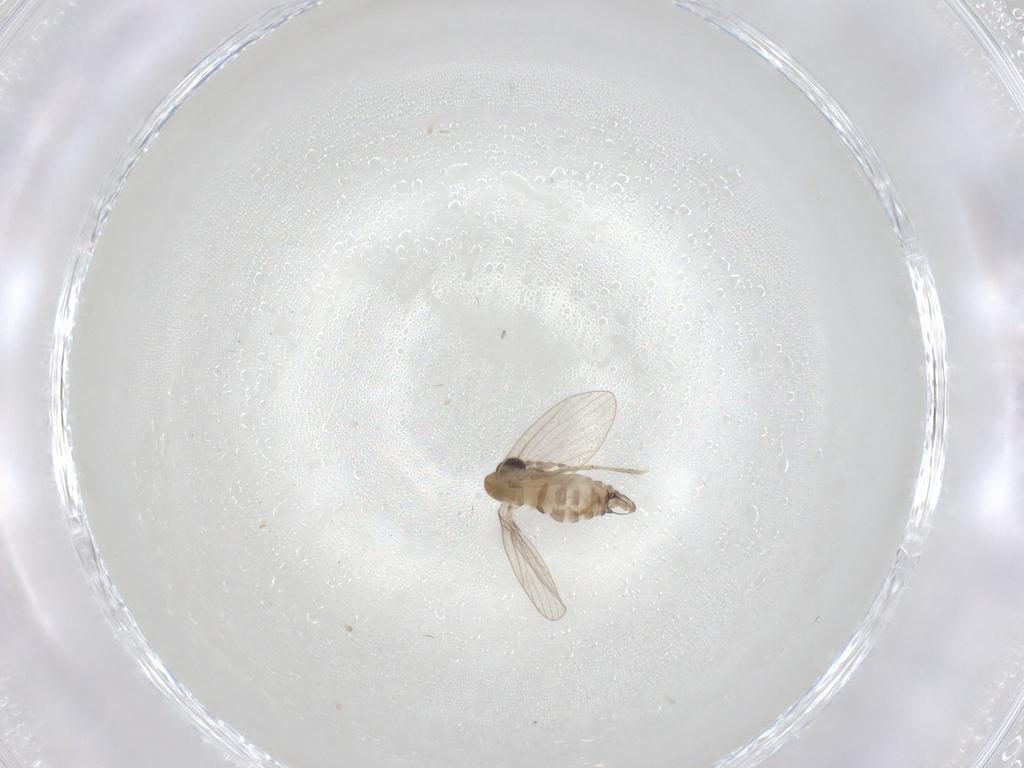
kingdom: Animalia
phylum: Arthropoda
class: Insecta
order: Diptera
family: Psychodidae
